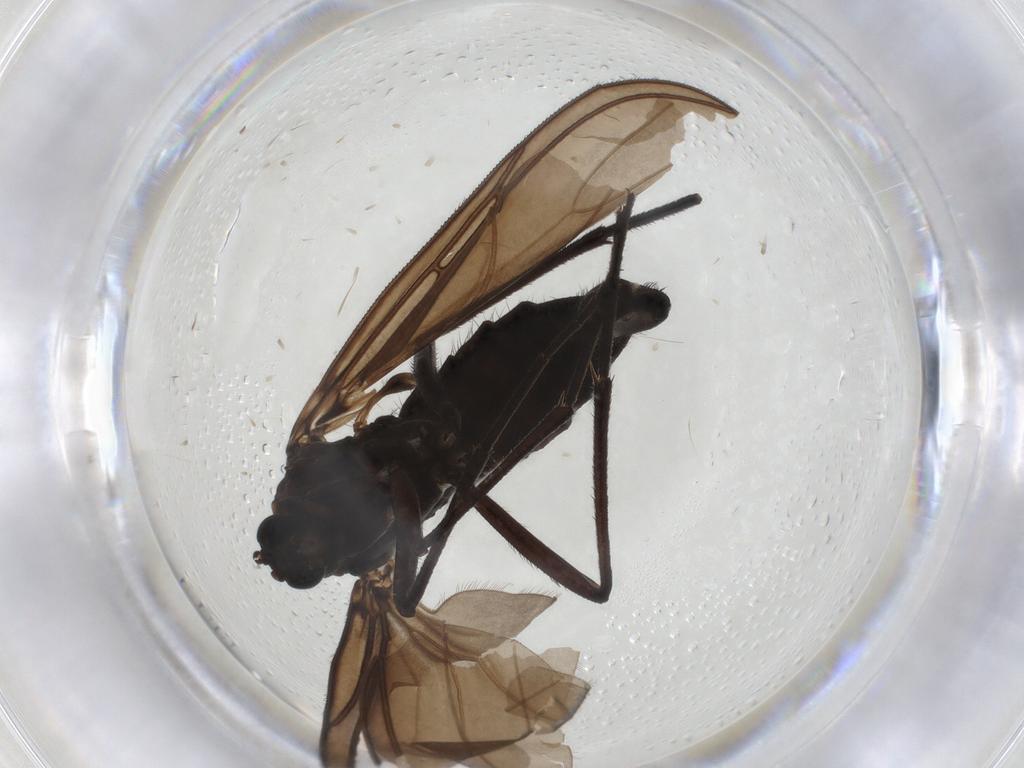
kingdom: Animalia
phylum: Arthropoda
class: Insecta
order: Diptera
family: Sciaridae
